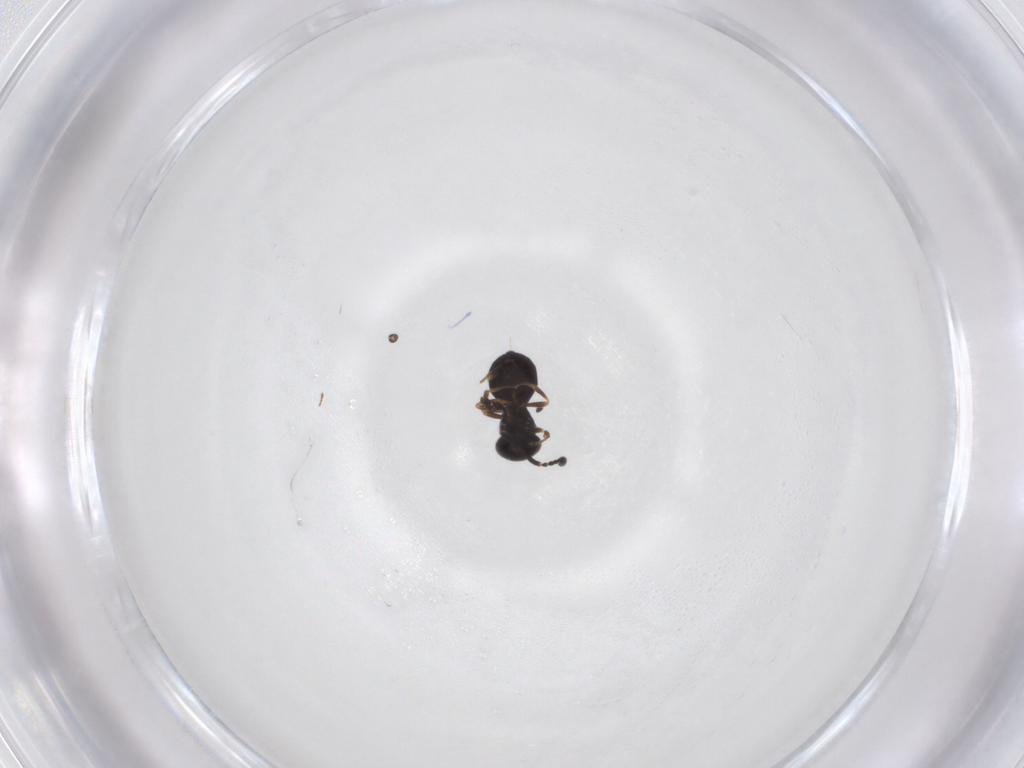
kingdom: Animalia
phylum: Arthropoda
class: Insecta
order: Hymenoptera
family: Scelionidae
